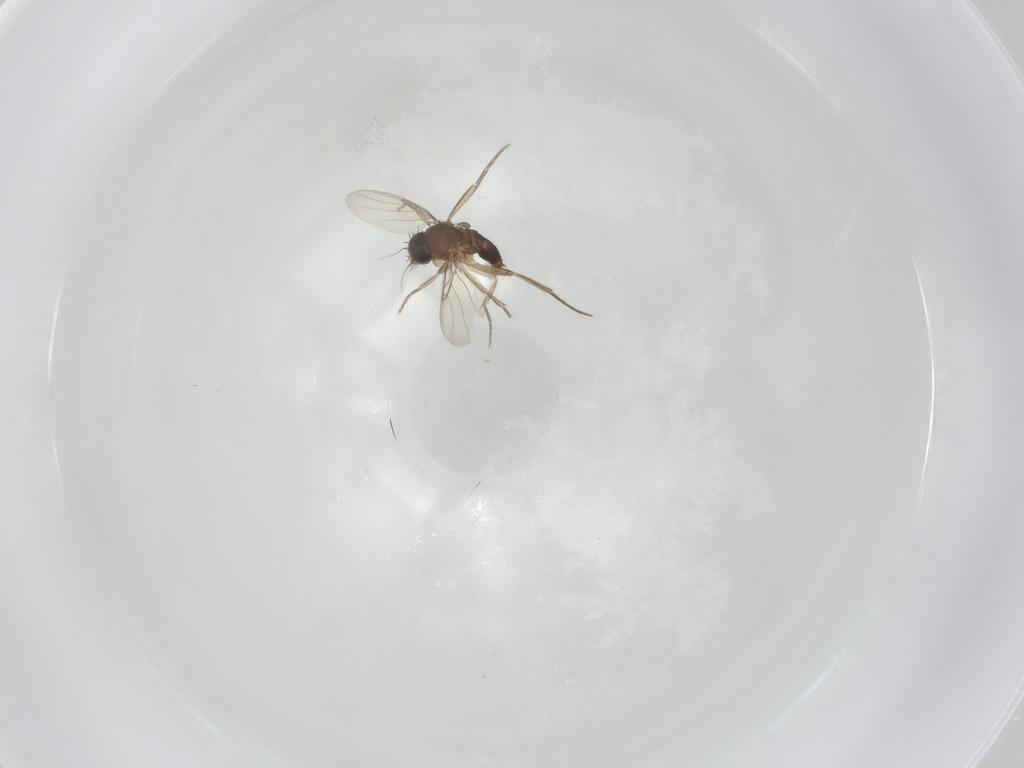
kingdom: Animalia
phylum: Arthropoda
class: Insecta
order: Diptera
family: Phoridae
